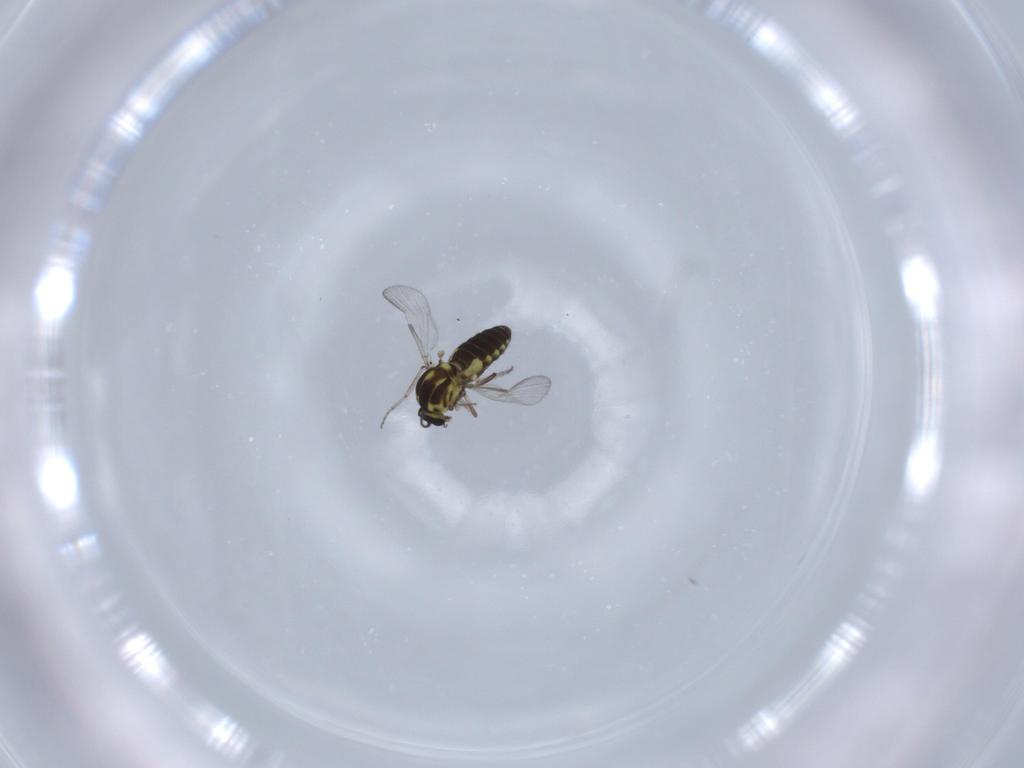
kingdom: Animalia
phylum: Arthropoda
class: Insecta
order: Diptera
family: Ceratopogonidae
